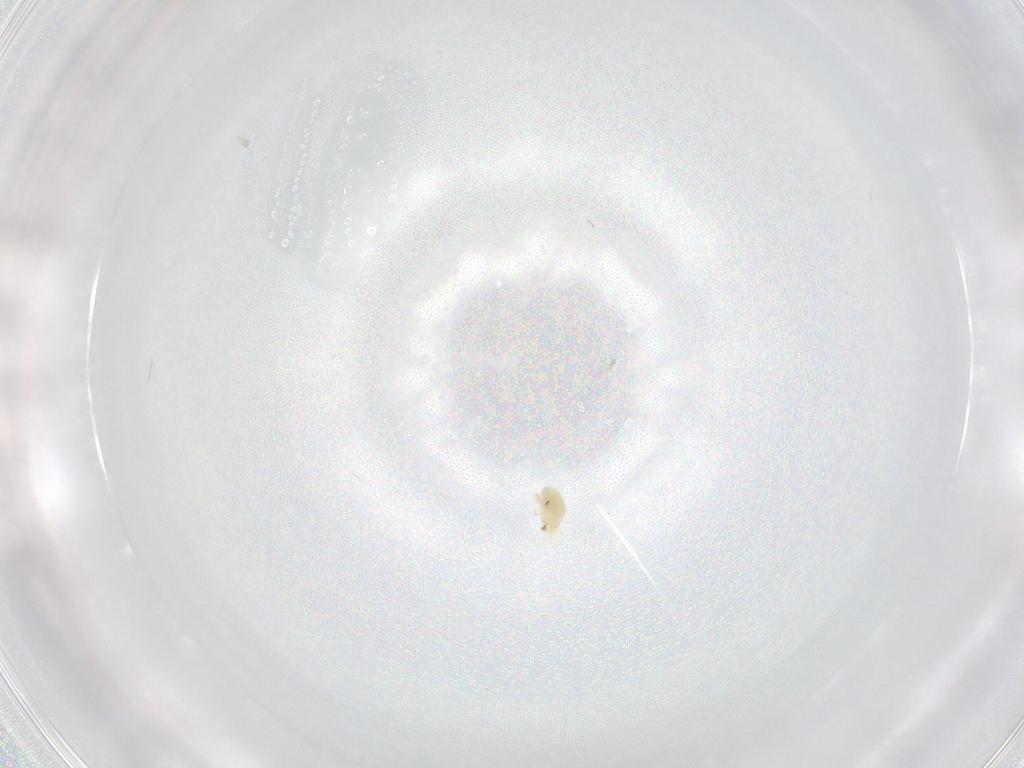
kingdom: Animalia
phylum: Arthropoda
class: Arachnida
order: Trombidiformes
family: Eupodidae
